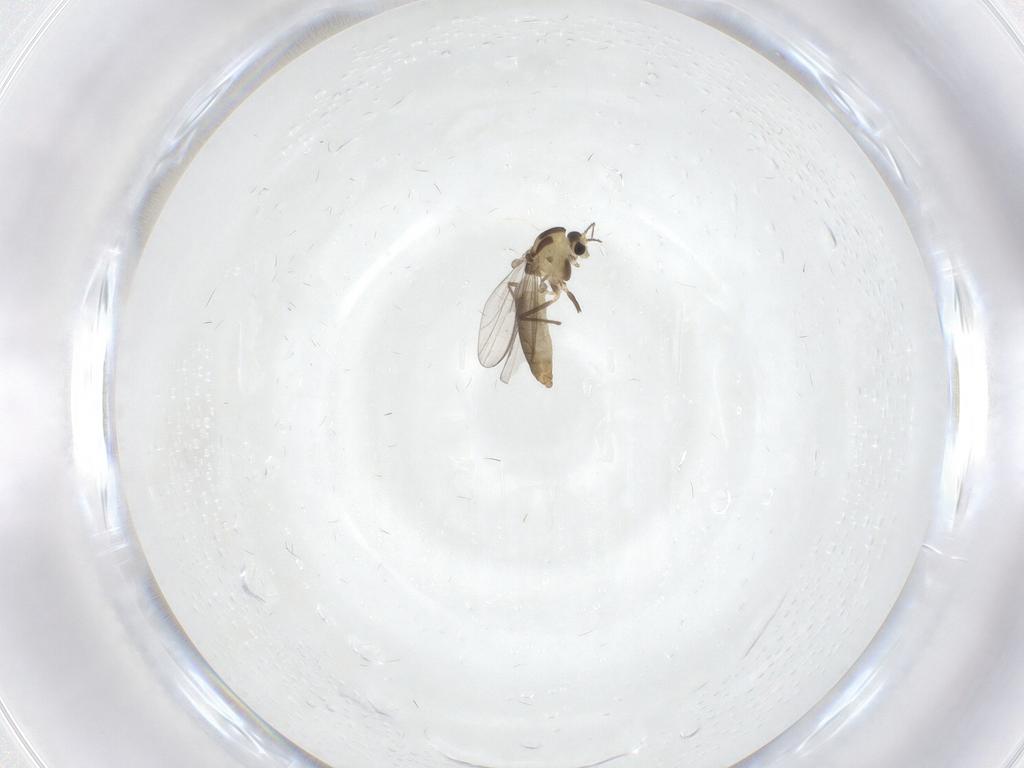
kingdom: Animalia
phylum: Arthropoda
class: Insecta
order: Diptera
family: Chironomidae
